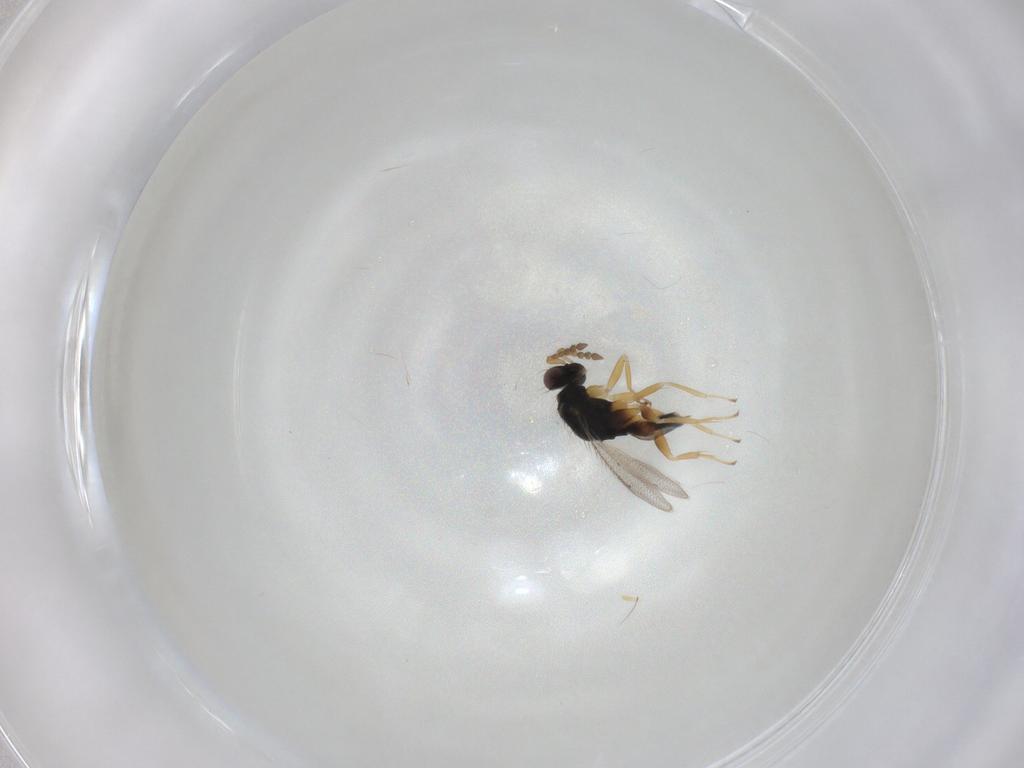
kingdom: Animalia
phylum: Arthropoda
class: Insecta
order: Hymenoptera
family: Eulophidae
